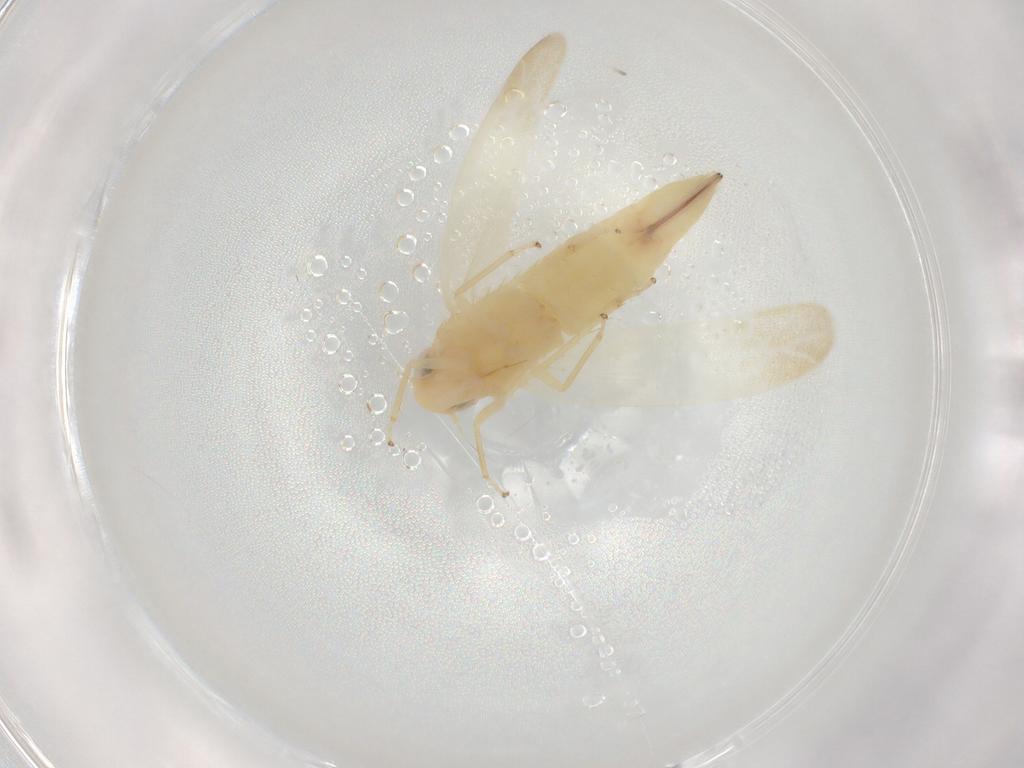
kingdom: Animalia
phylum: Arthropoda
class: Insecta
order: Hemiptera
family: Cicadellidae
